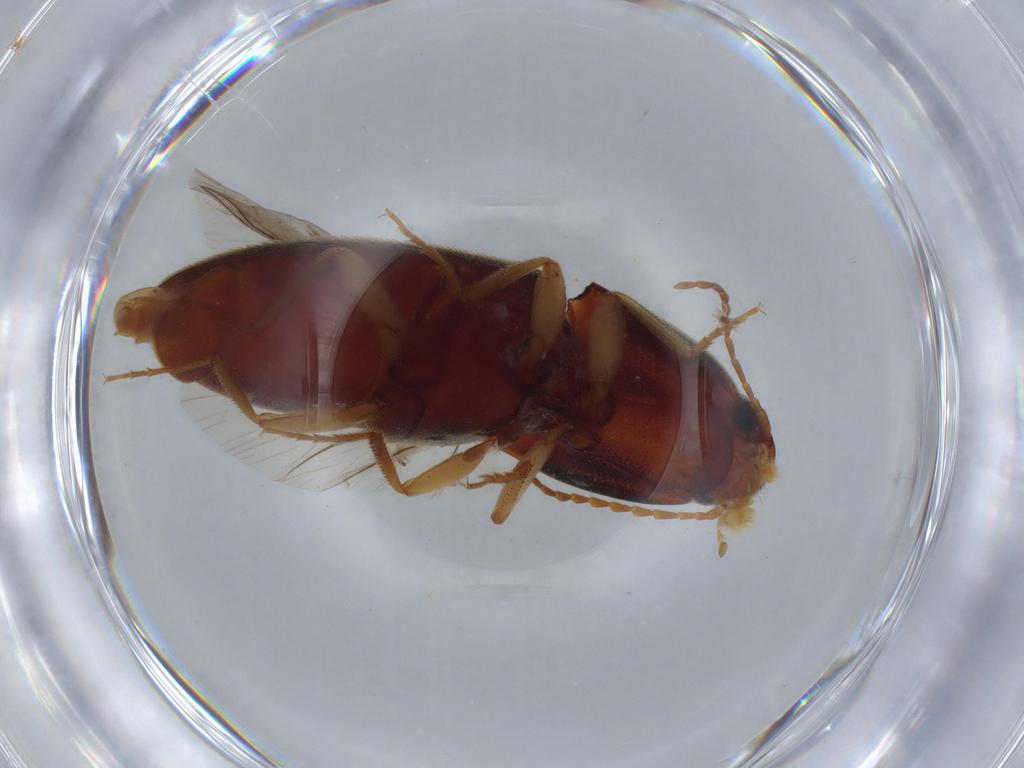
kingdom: Animalia
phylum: Arthropoda
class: Insecta
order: Coleoptera
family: Elateridae
